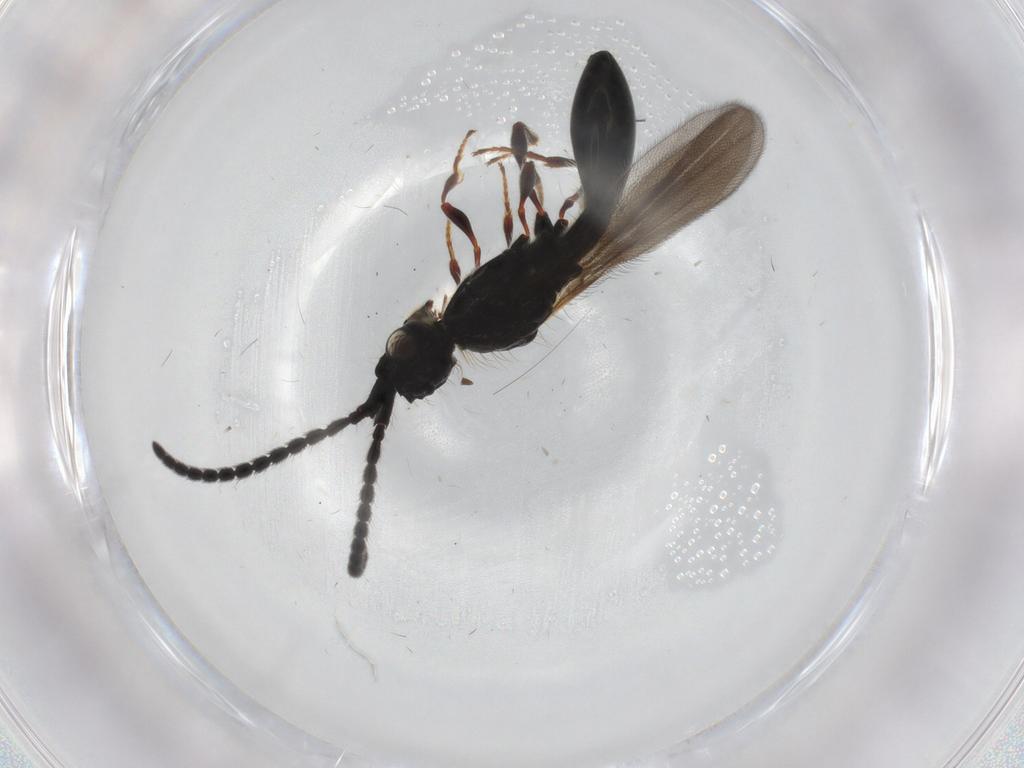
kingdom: Animalia
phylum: Arthropoda
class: Insecta
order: Hymenoptera
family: Diapriidae
